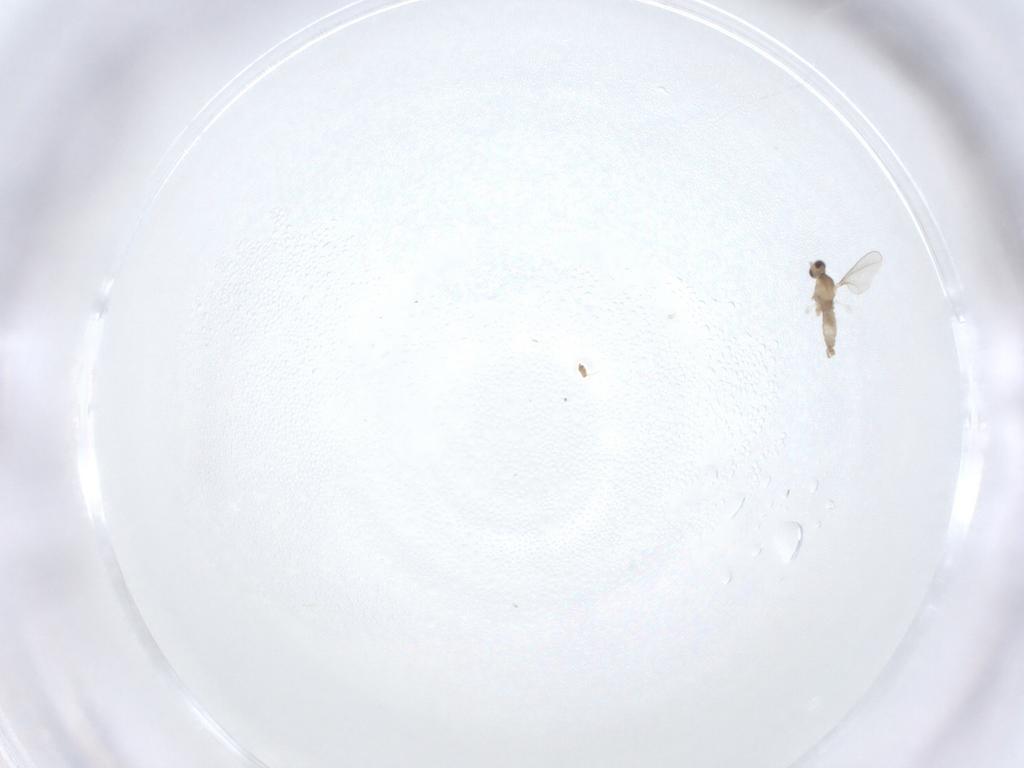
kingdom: Animalia
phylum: Arthropoda
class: Insecta
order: Diptera
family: Cecidomyiidae
